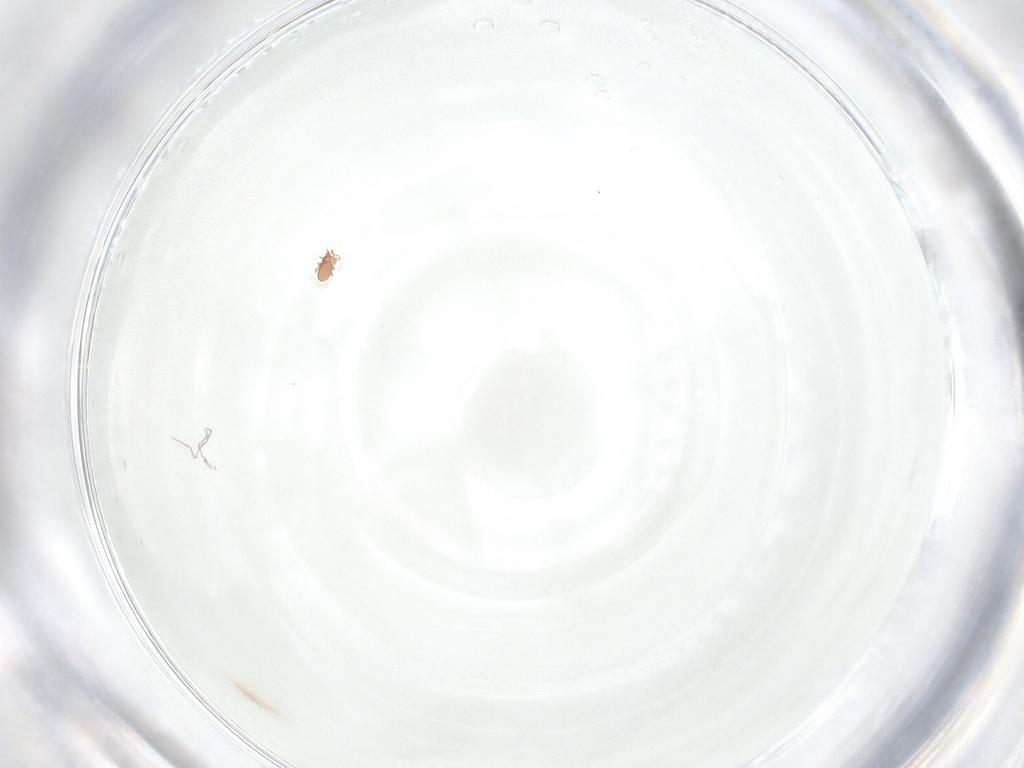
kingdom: Animalia
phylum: Arthropoda
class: Arachnida
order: Sarcoptiformes
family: Oppiidae
